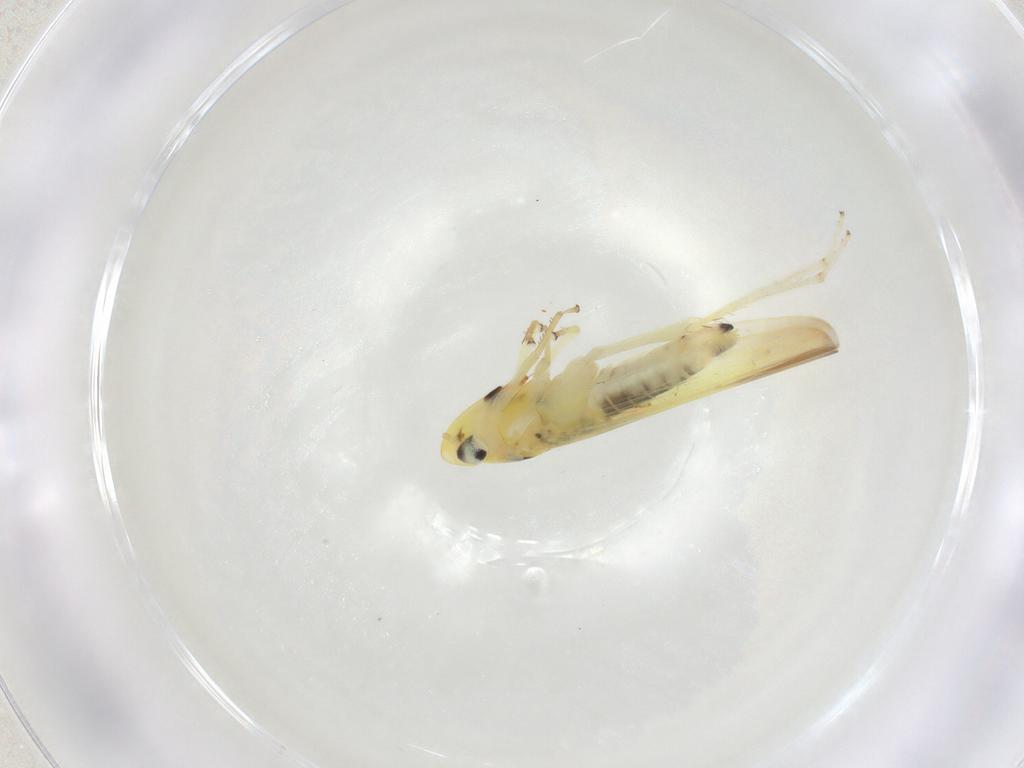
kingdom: Animalia
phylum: Arthropoda
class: Insecta
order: Hemiptera
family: Cicadellidae
